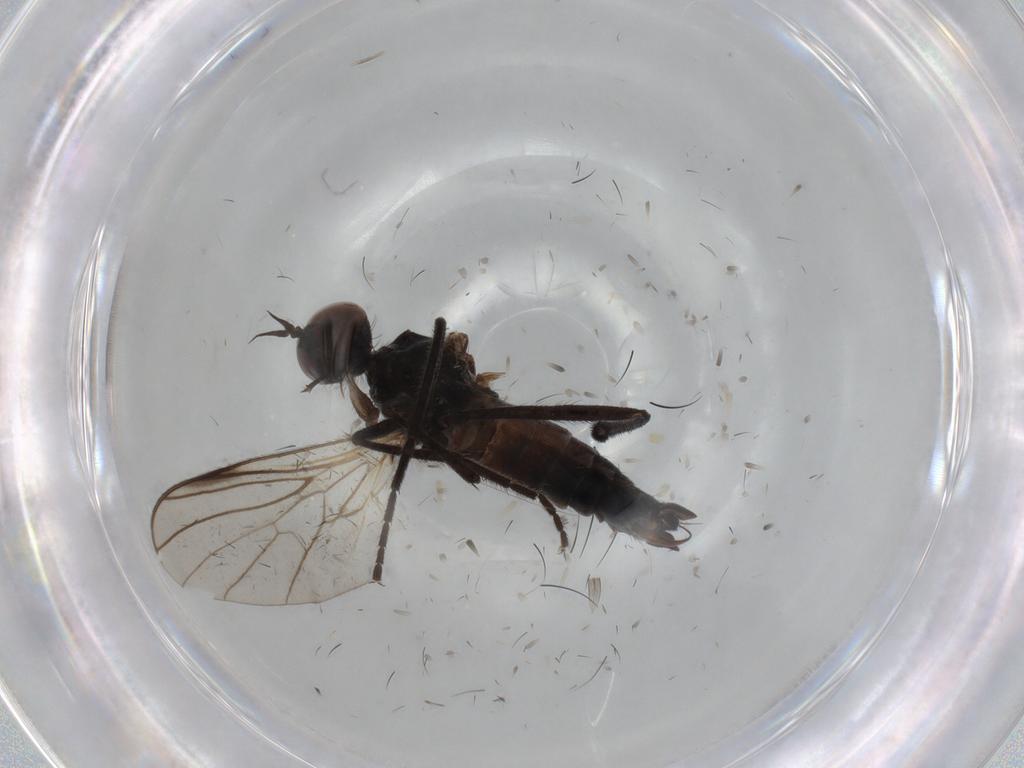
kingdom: Animalia
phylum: Arthropoda
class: Insecta
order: Diptera
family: Empididae
